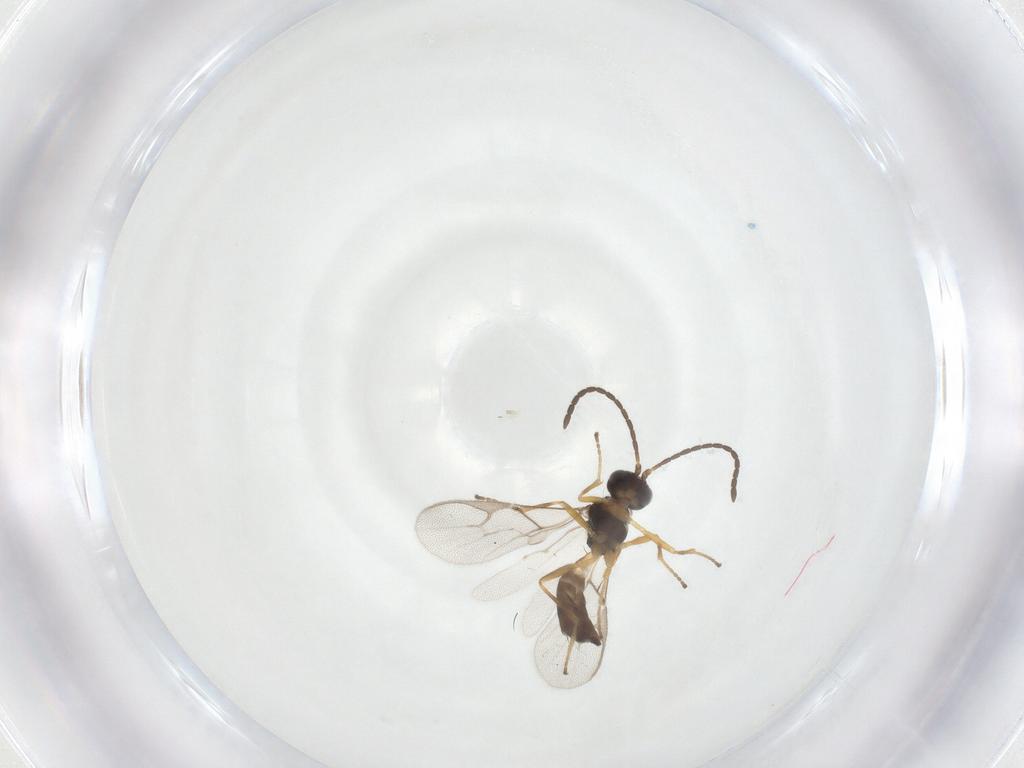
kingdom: Animalia
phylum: Arthropoda
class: Insecta
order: Hymenoptera
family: Braconidae
